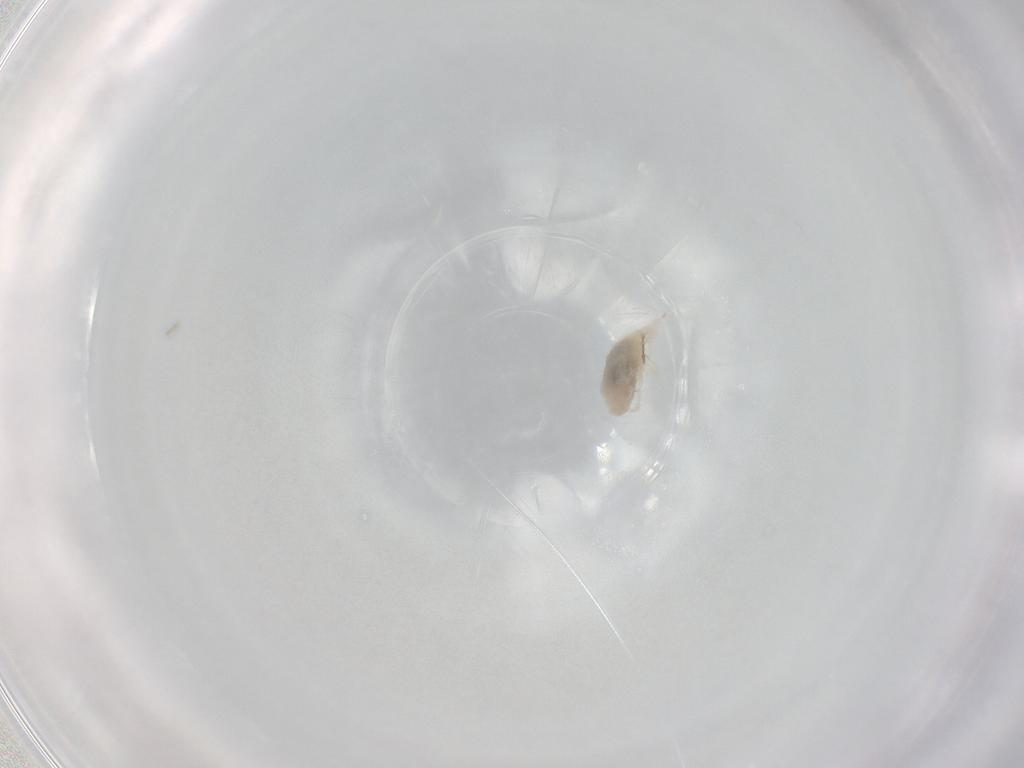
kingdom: Animalia
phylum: Arthropoda
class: Arachnida
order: Trombidiformes
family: Bdellidae
